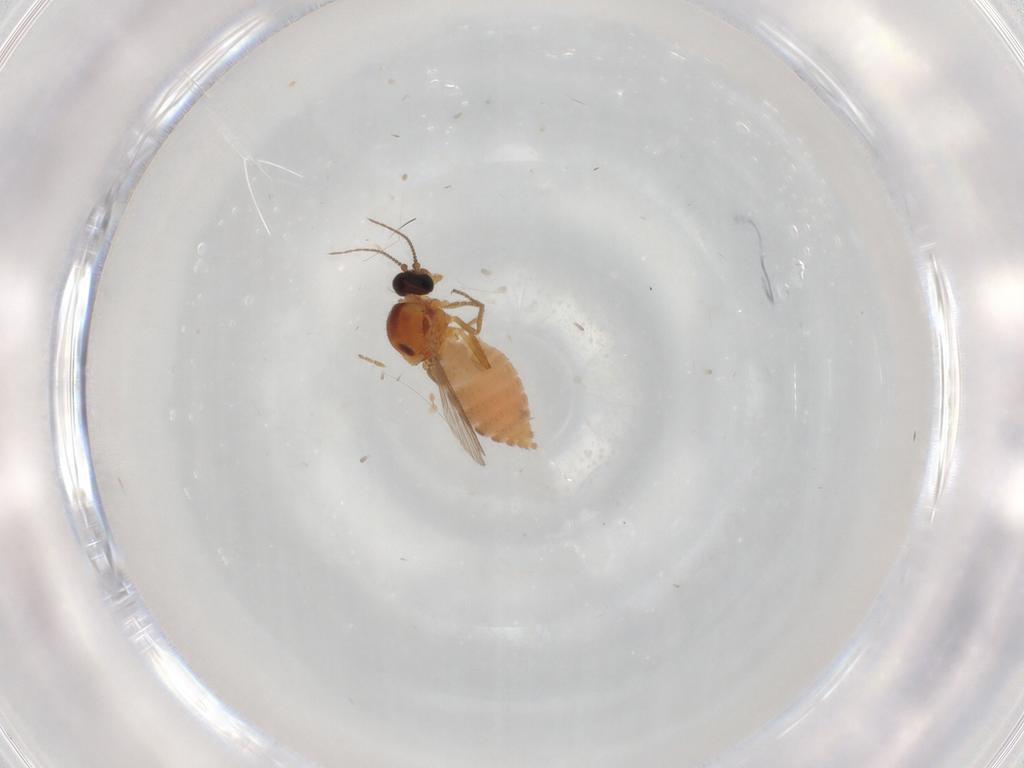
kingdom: Animalia
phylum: Arthropoda
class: Insecta
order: Diptera
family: Ceratopogonidae
